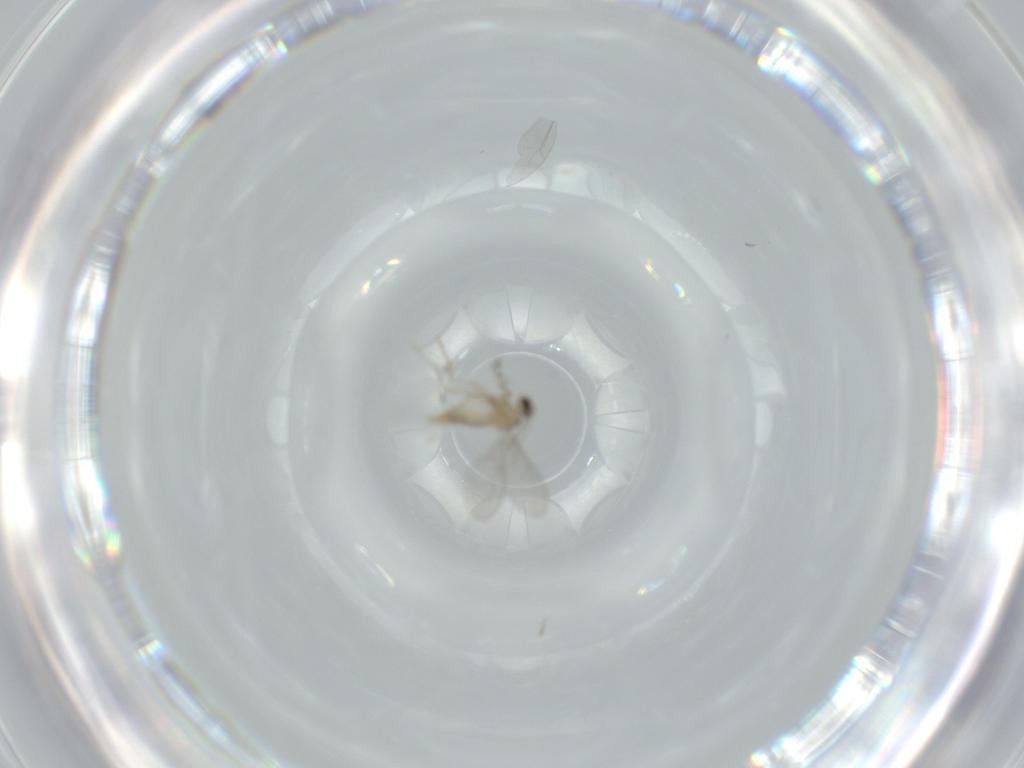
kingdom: Animalia
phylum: Arthropoda
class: Insecta
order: Diptera
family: Cecidomyiidae
